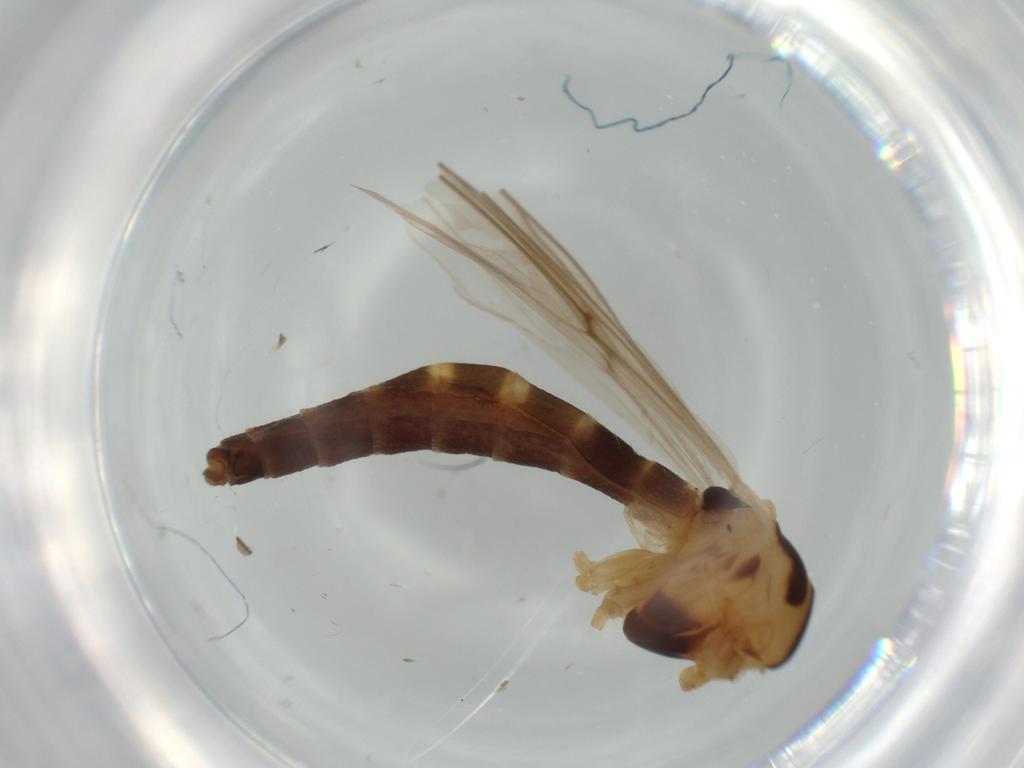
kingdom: Animalia
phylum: Arthropoda
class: Insecta
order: Diptera
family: Chironomidae
